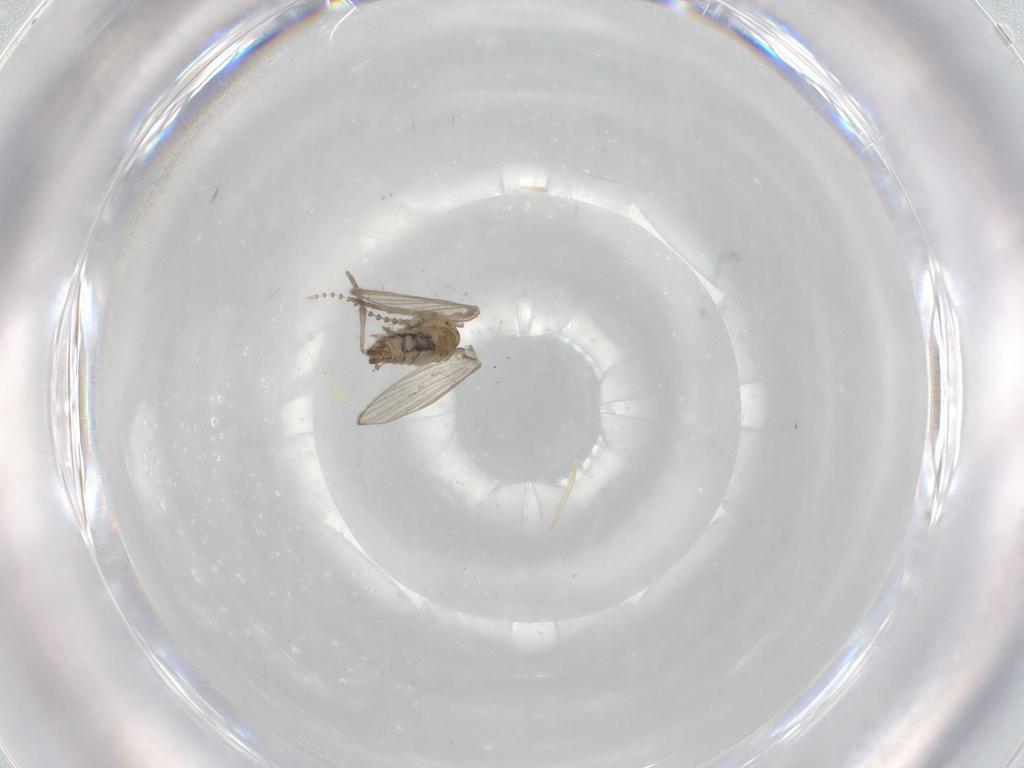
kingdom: Animalia
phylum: Arthropoda
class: Insecta
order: Diptera
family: Psychodidae
